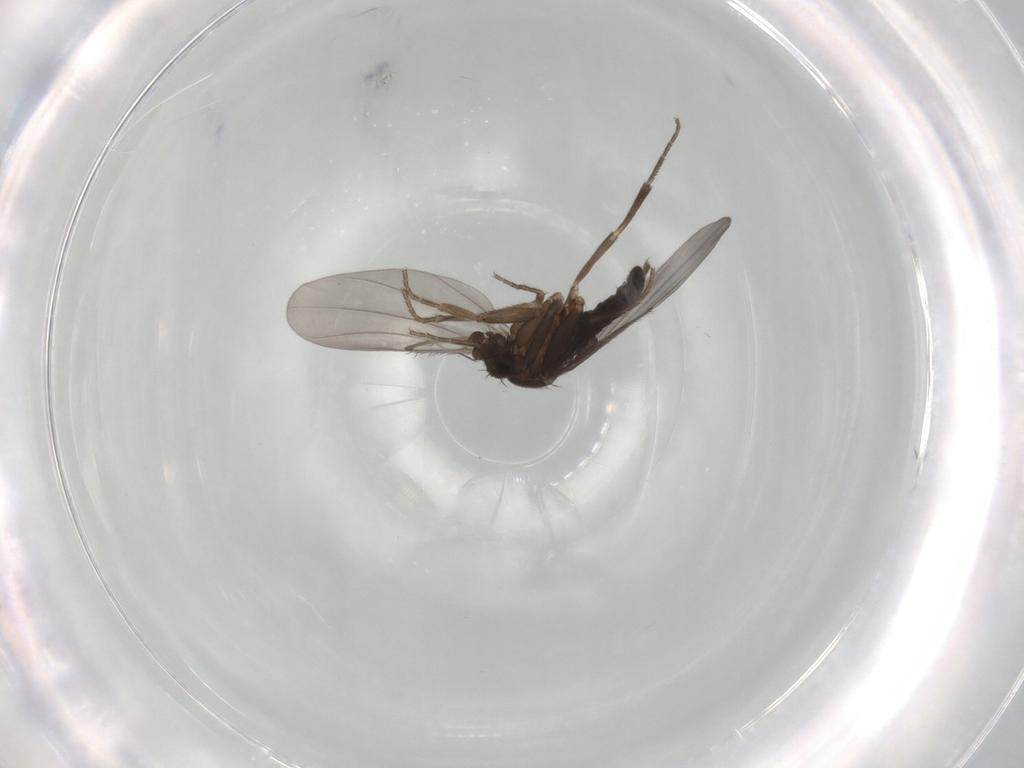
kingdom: Animalia
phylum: Arthropoda
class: Insecta
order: Diptera
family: Phoridae
